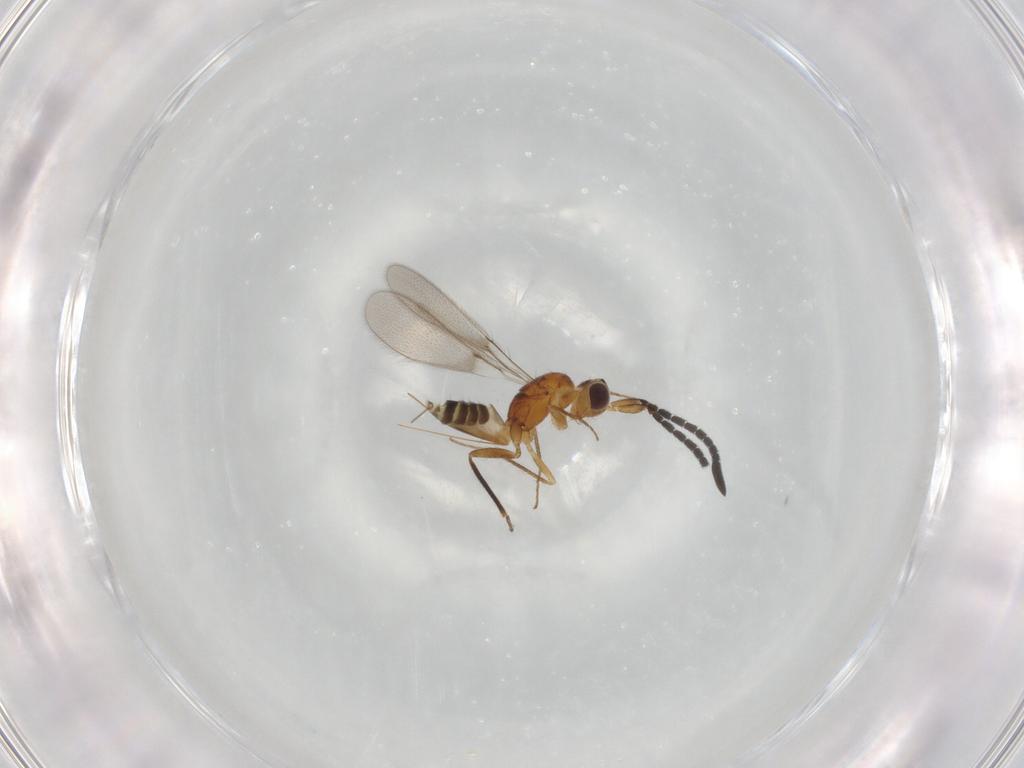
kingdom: Animalia
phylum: Arthropoda
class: Insecta
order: Hymenoptera
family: Mymaridae
